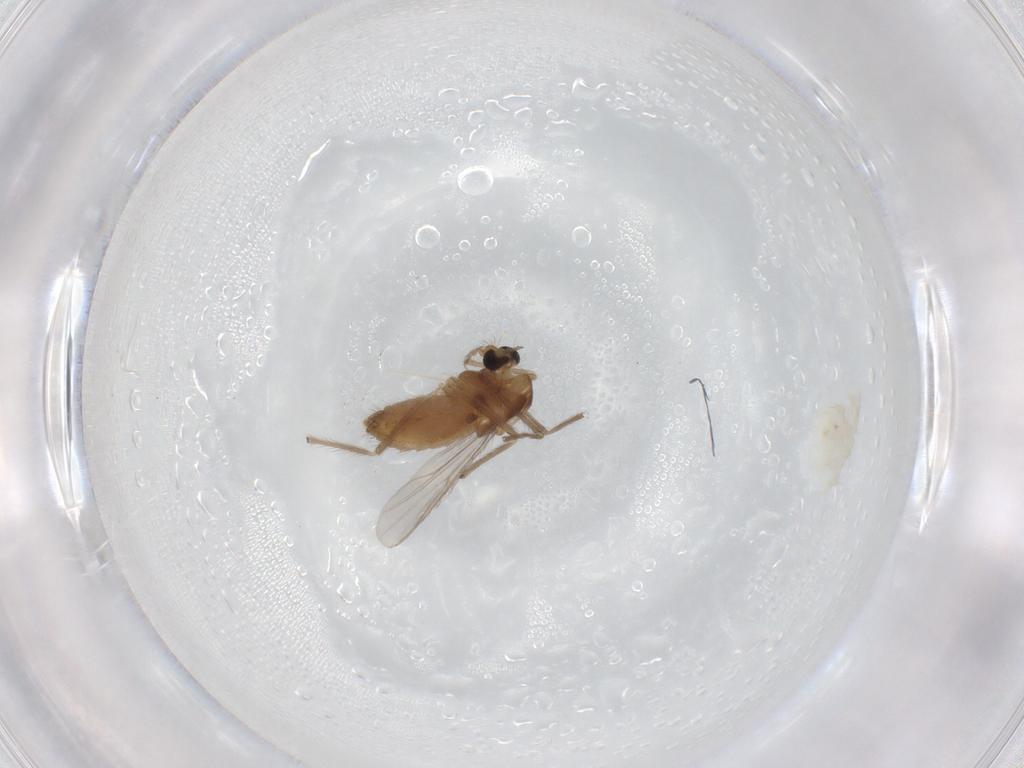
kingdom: Animalia
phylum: Arthropoda
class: Insecta
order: Diptera
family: Chironomidae
